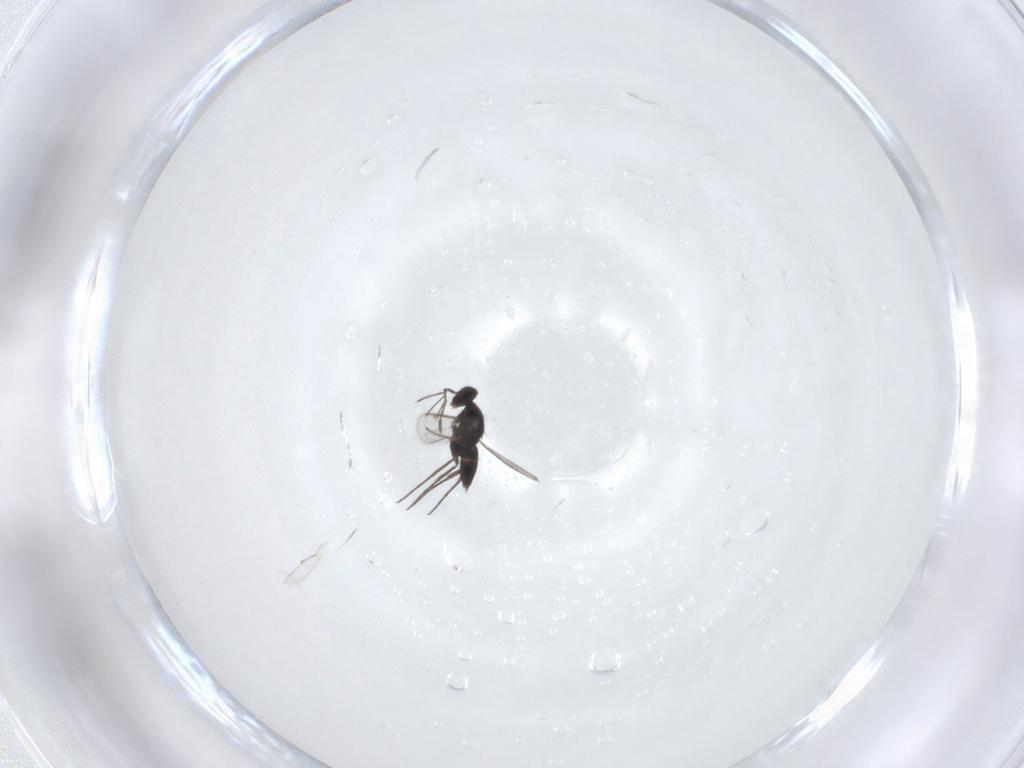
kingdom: Animalia
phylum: Arthropoda
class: Insecta
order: Hymenoptera
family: Eulophidae
